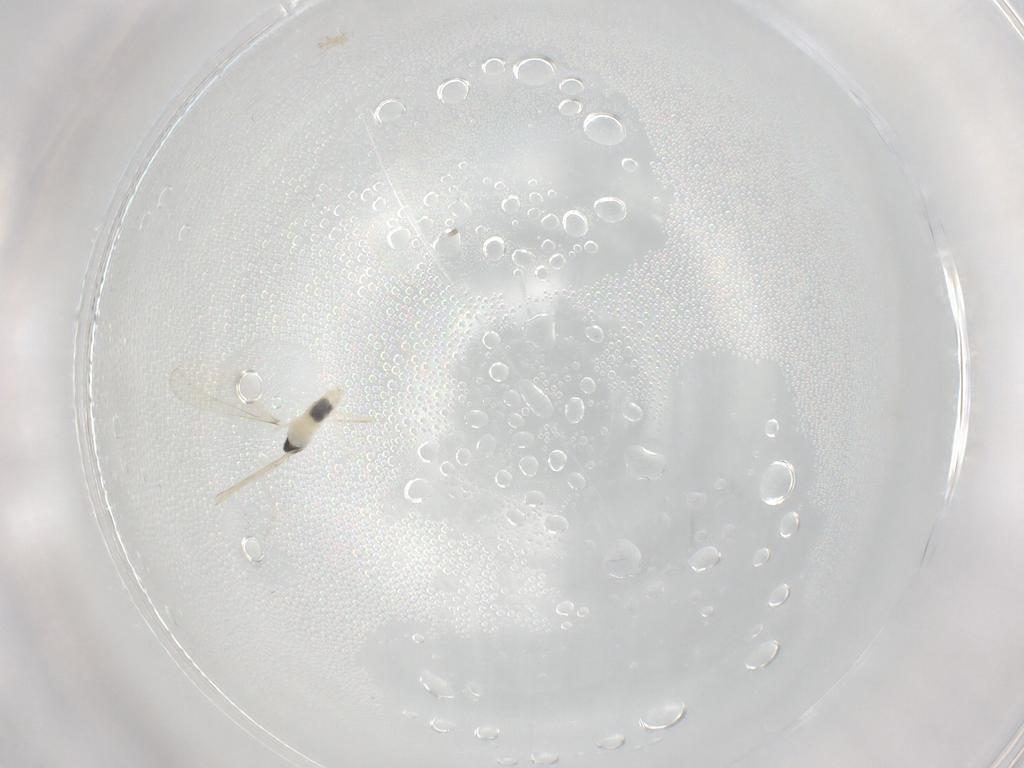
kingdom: Animalia
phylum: Arthropoda
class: Insecta
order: Diptera
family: Cecidomyiidae
